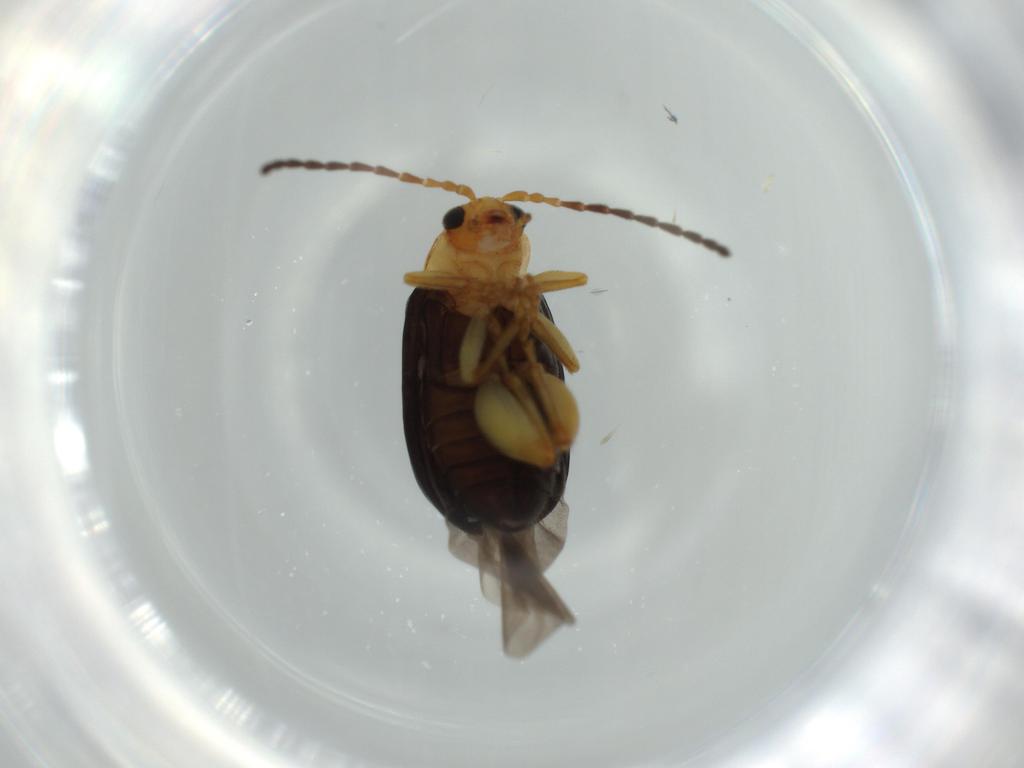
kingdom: Animalia
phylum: Arthropoda
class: Insecta
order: Coleoptera
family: Chrysomelidae
